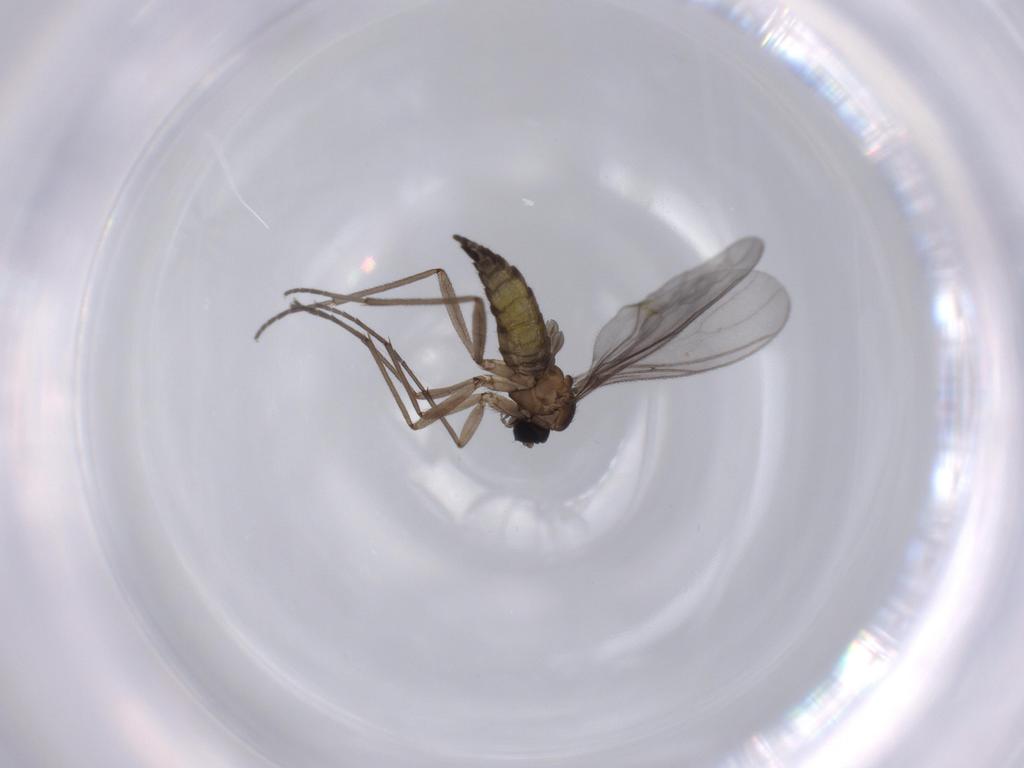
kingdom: Animalia
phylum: Arthropoda
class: Insecta
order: Diptera
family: Sciaridae
